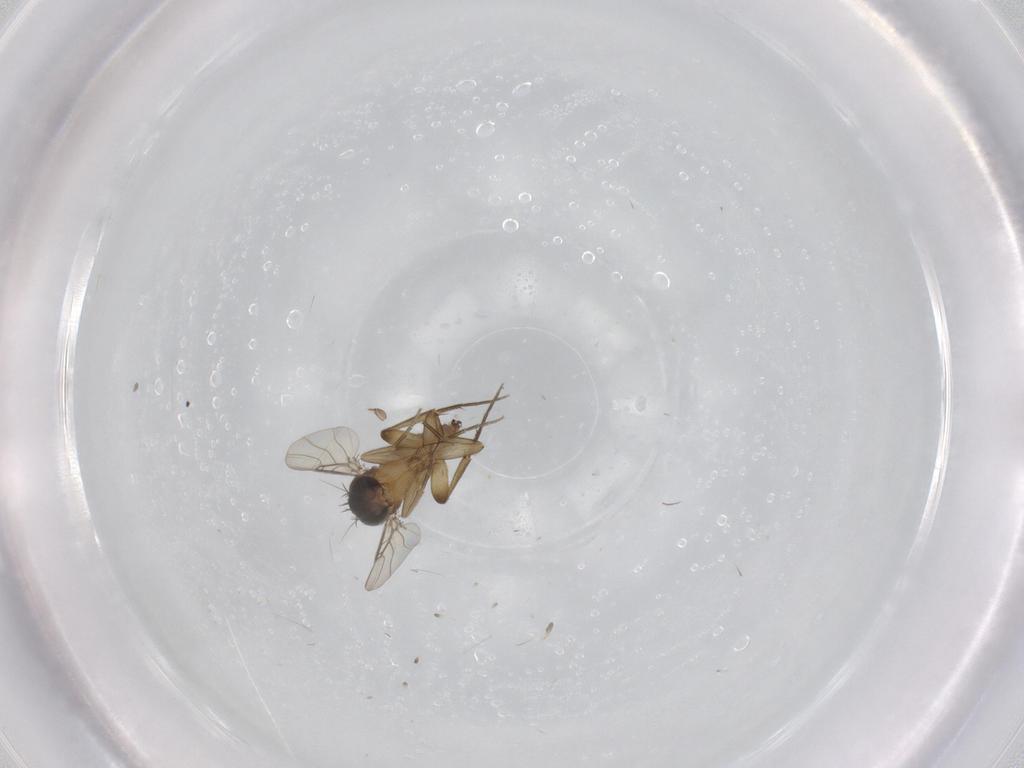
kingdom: Animalia
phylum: Arthropoda
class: Insecta
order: Diptera
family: Phoridae
